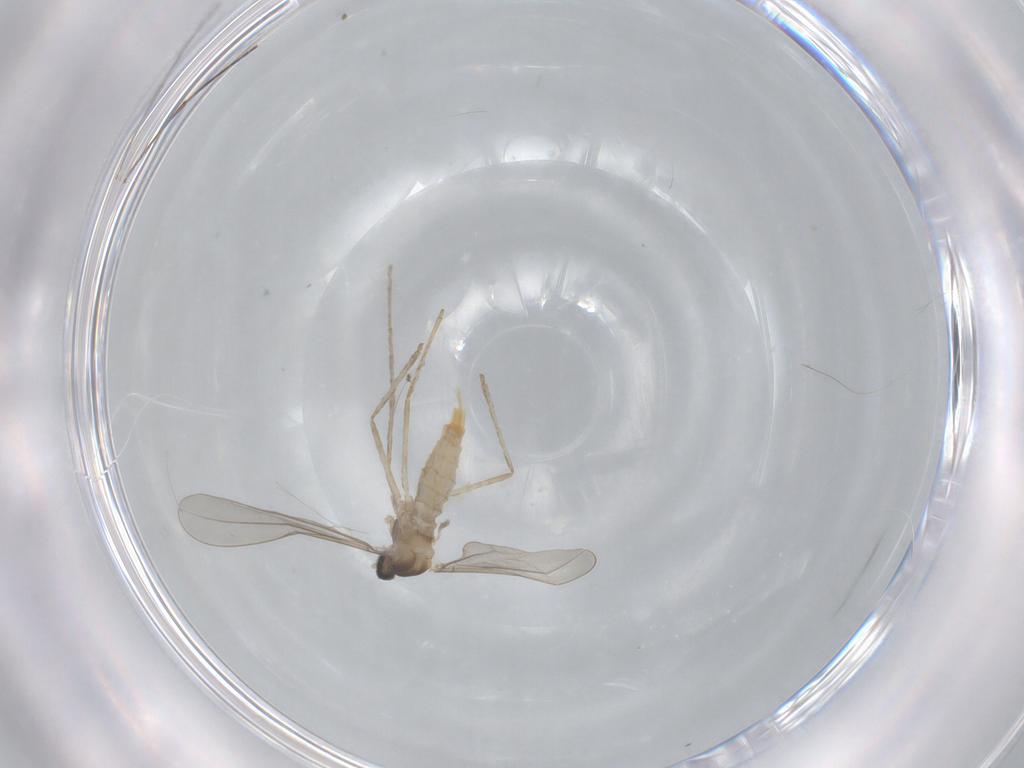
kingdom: Animalia
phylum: Arthropoda
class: Insecta
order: Diptera
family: Sciaridae
